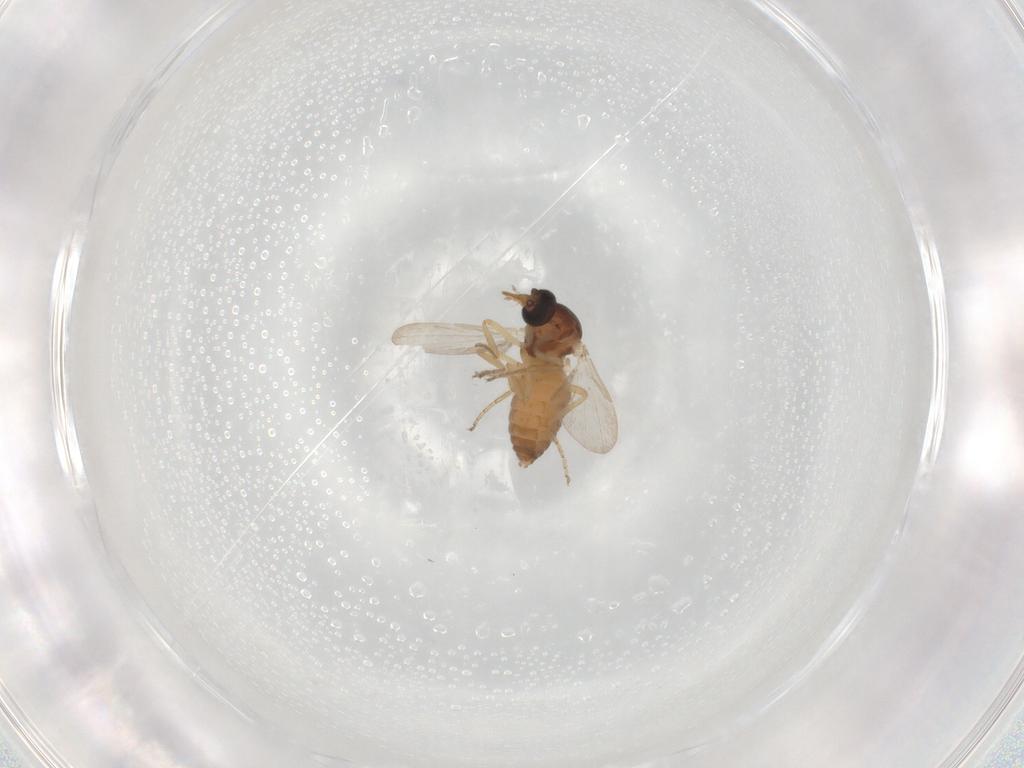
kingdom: Animalia
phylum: Arthropoda
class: Insecta
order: Diptera
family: Ceratopogonidae
